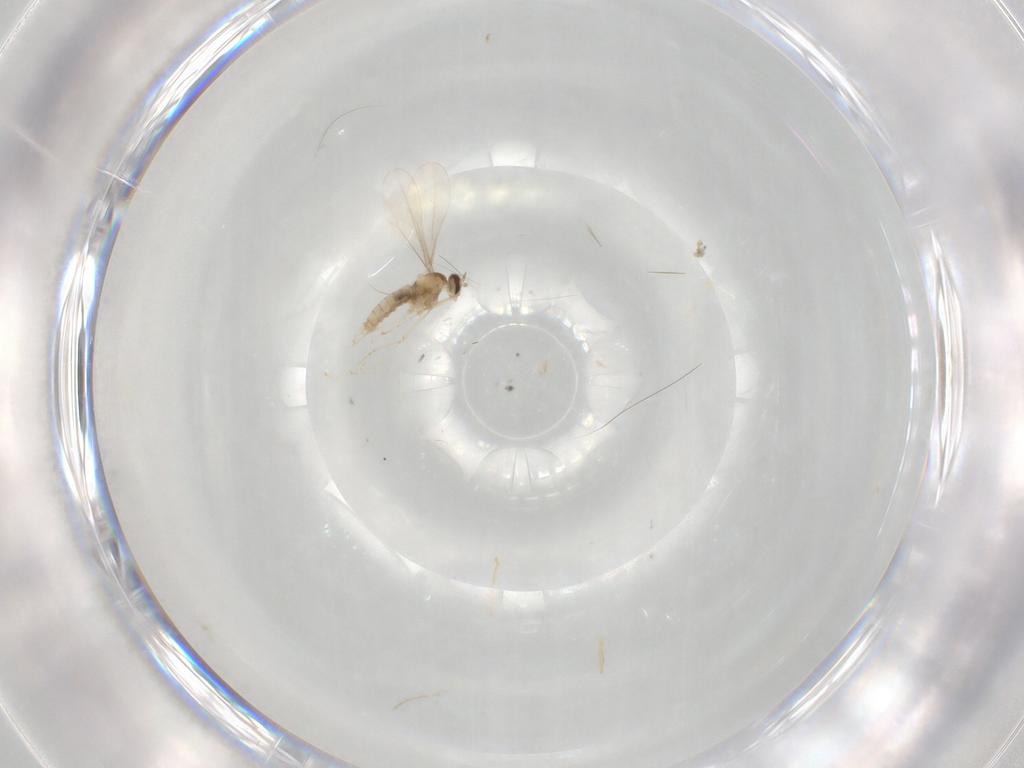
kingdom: Animalia
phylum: Arthropoda
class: Insecta
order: Diptera
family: Cecidomyiidae
